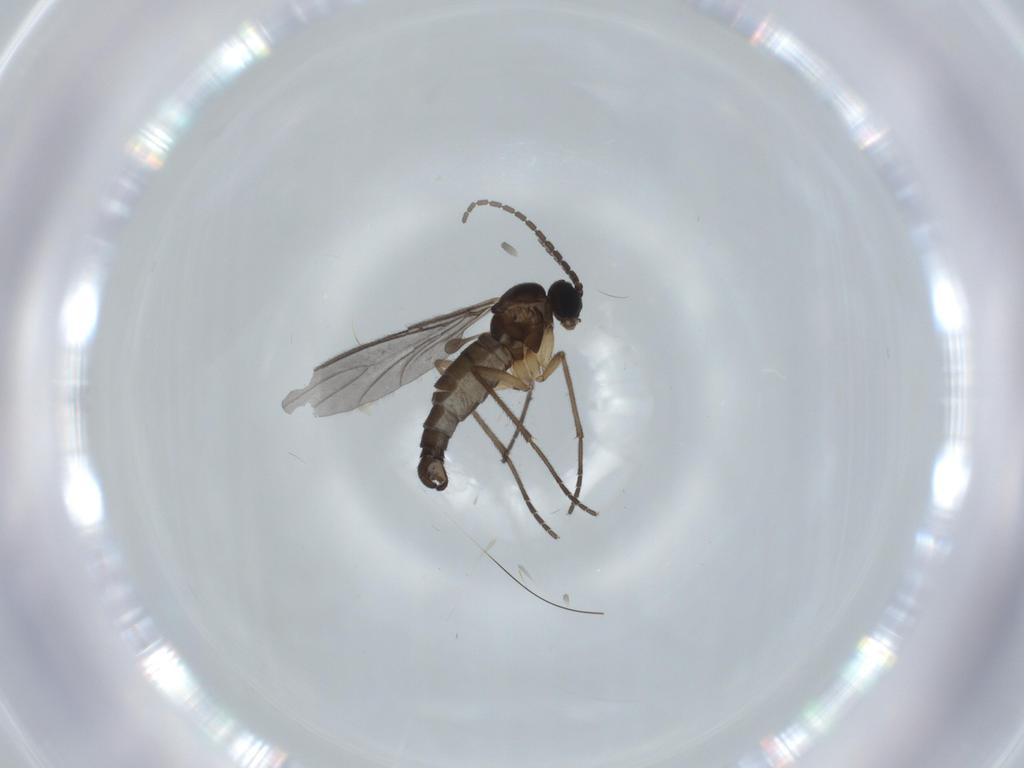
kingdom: Animalia
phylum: Arthropoda
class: Insecta
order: Diptera
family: Sciaridae
